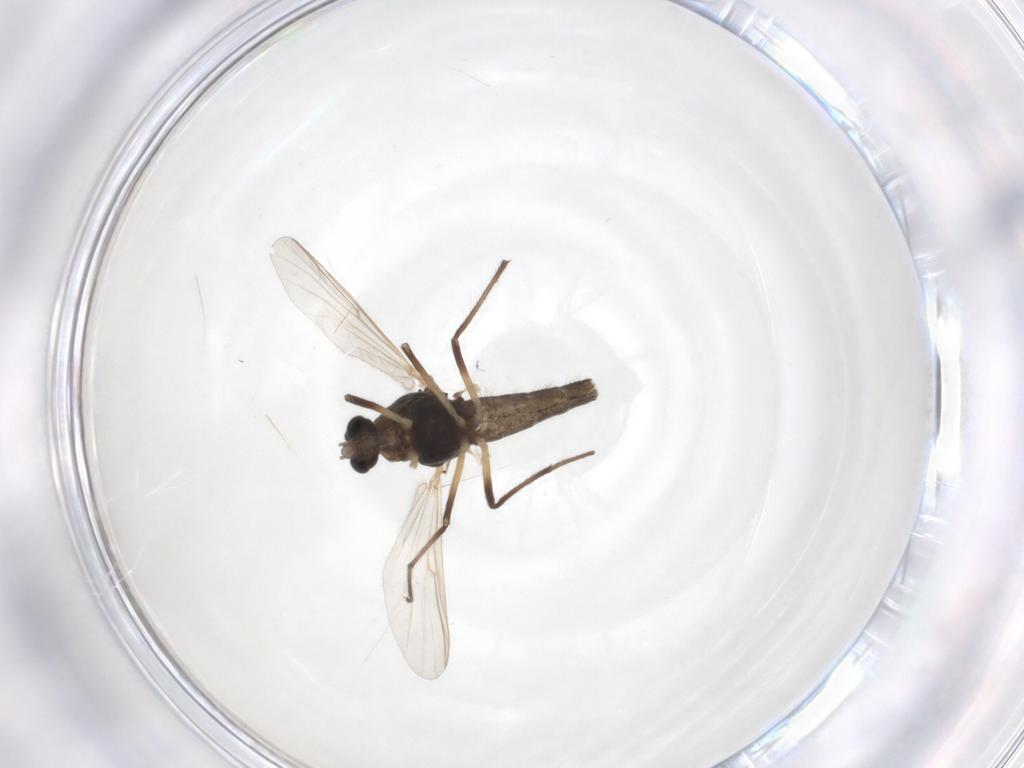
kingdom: Animalia
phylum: Arthropoda
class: Insecta
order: Diptera
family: Chironomidae
